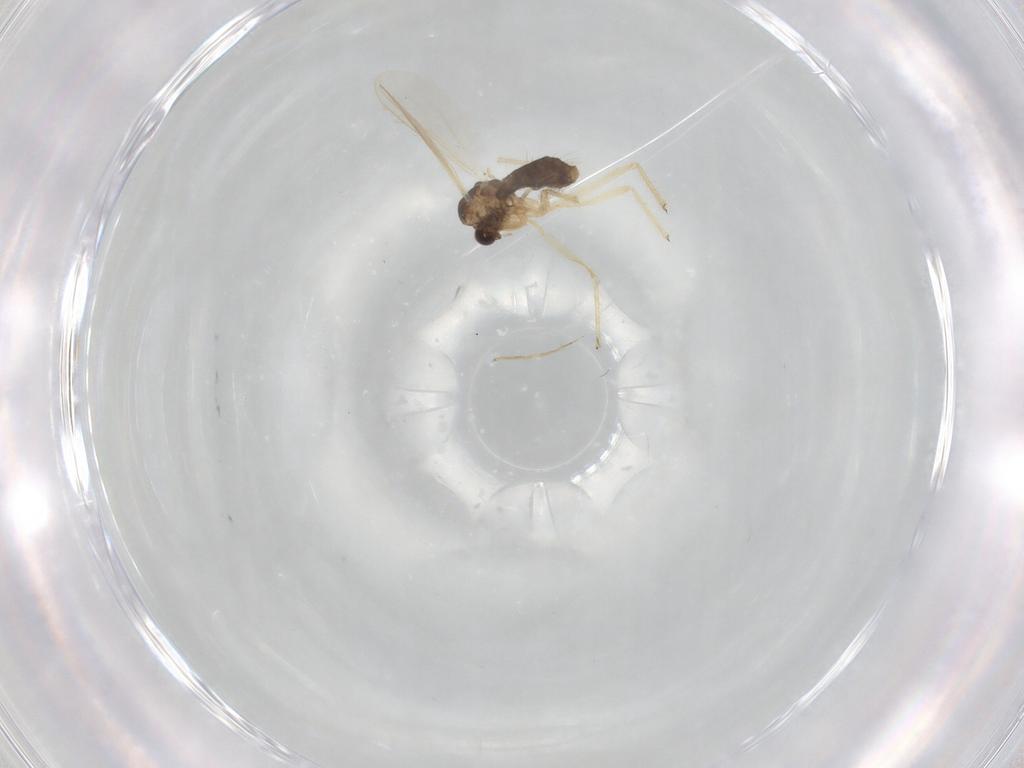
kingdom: Animalia
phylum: Arthropoda
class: Insecta
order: Diptera
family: Chironomidae
